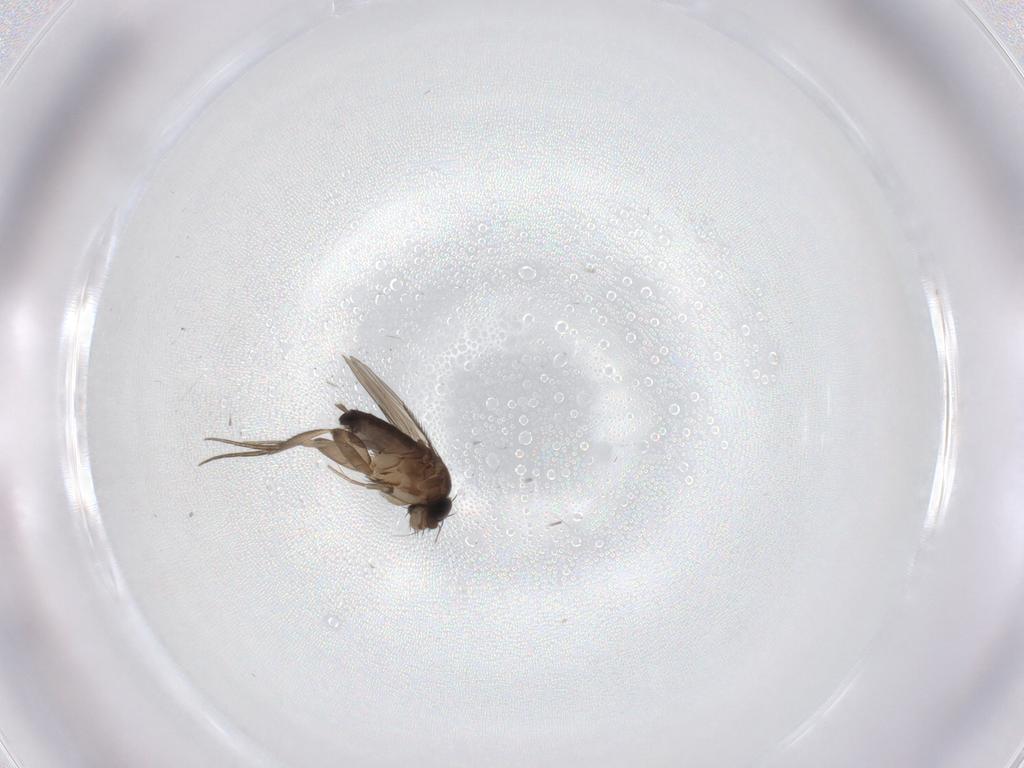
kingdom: Animalia
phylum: Arthropoda
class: Insecta
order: Diptera
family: Phoridae
